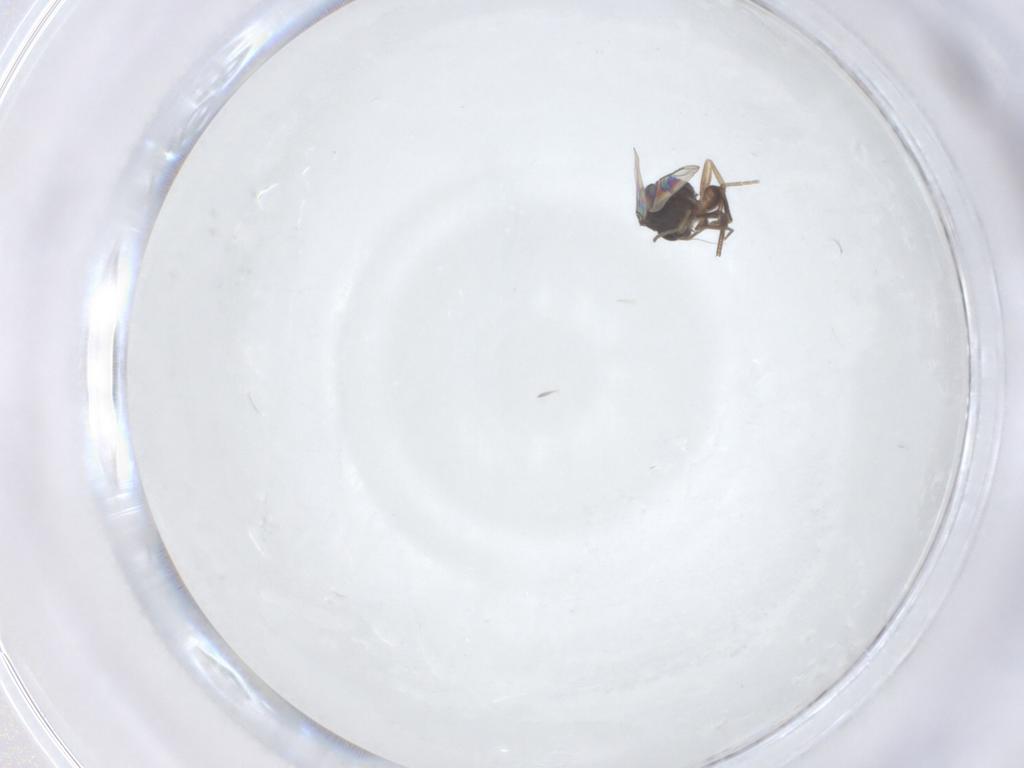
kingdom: Animalia
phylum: Arthropoda
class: Insecta
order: Diptera
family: Phoridae
